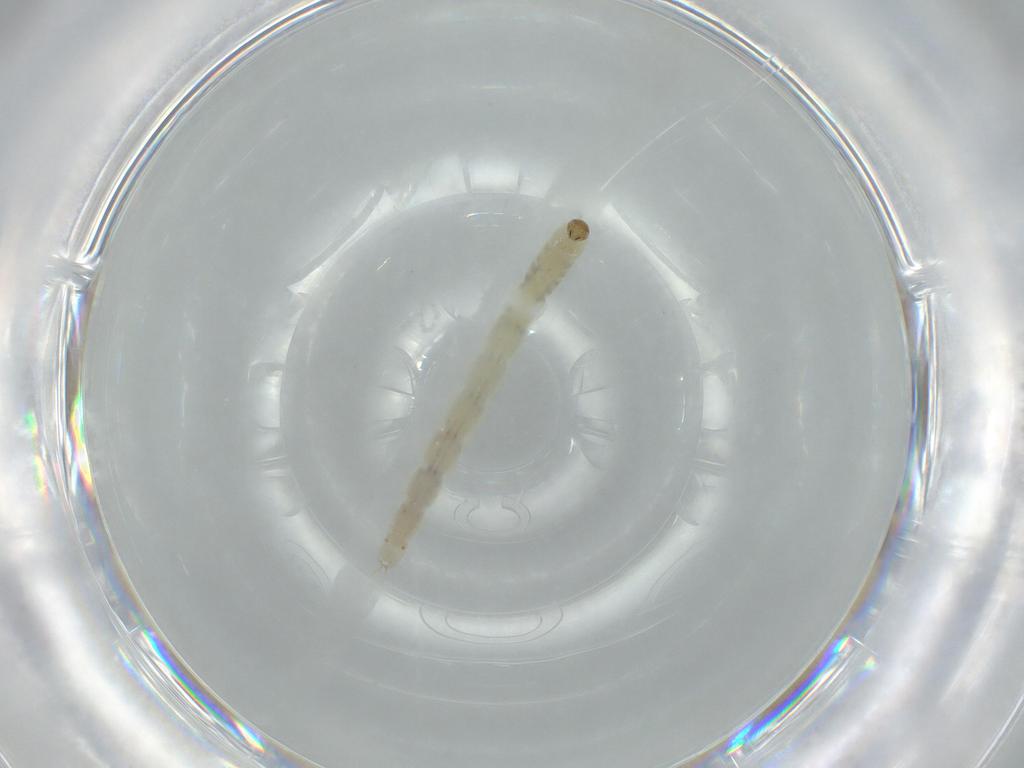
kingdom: Animalia
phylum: Arthropoda
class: Insecta
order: Diptera
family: Chironomidae
